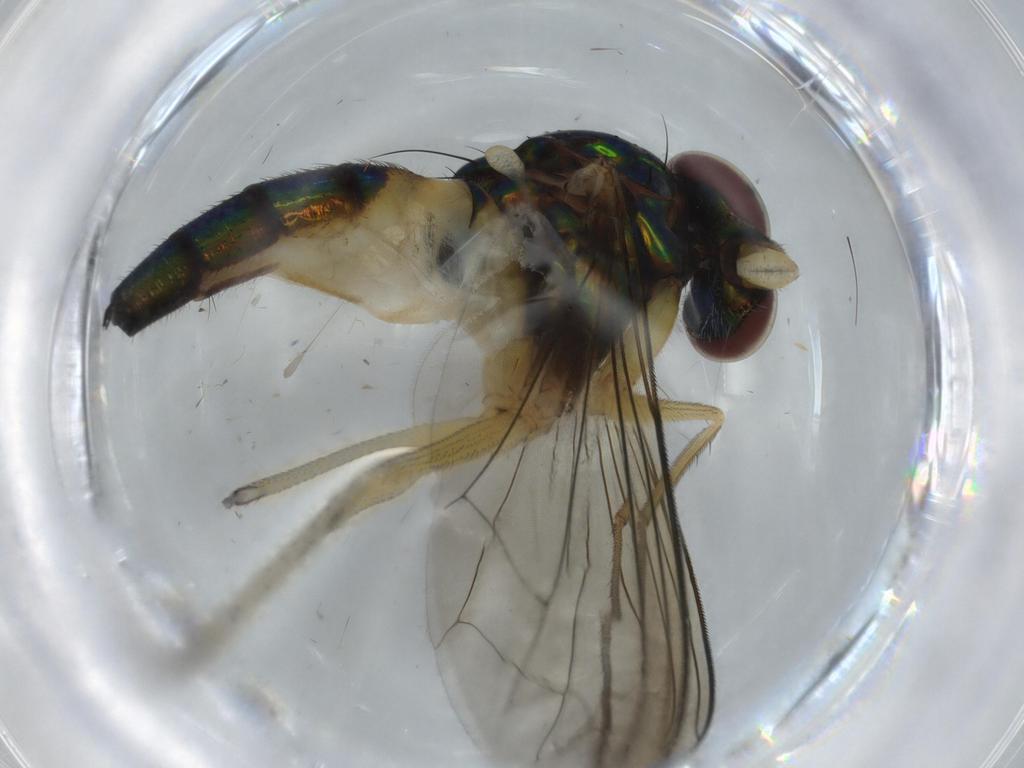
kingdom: Animalia
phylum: Arthropoda
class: Insecta
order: Diptera
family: Dolichopodidae
